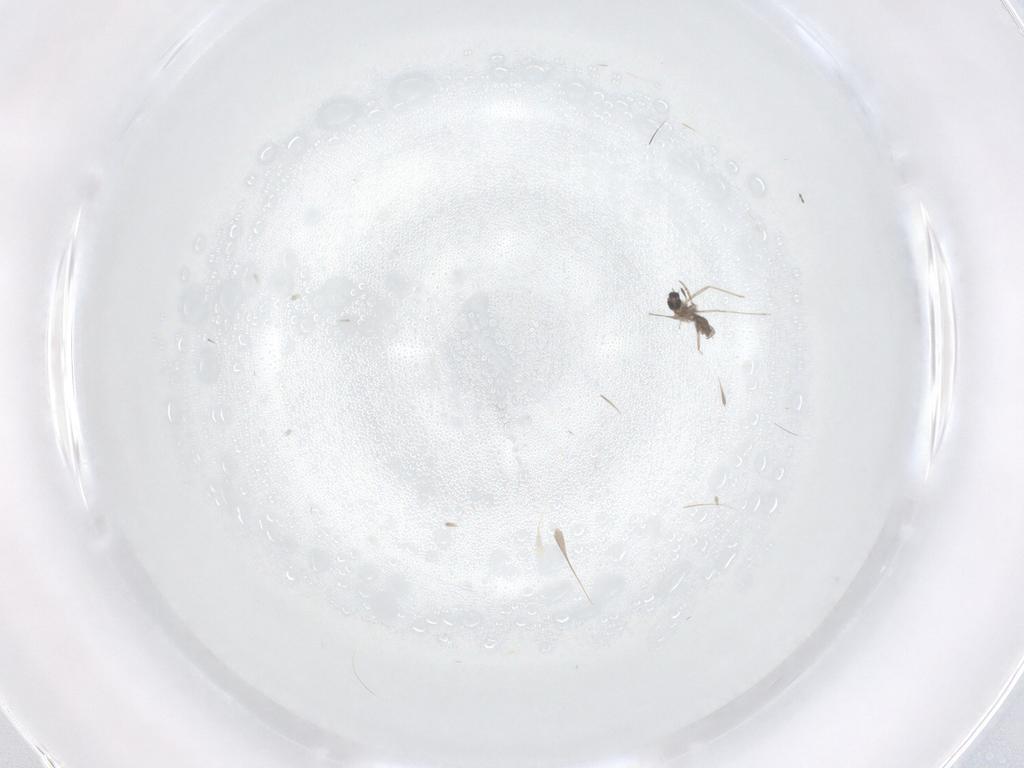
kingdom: Animalia
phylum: Arthropoda
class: Insecta
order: Diptera
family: Cecidomyiidae
